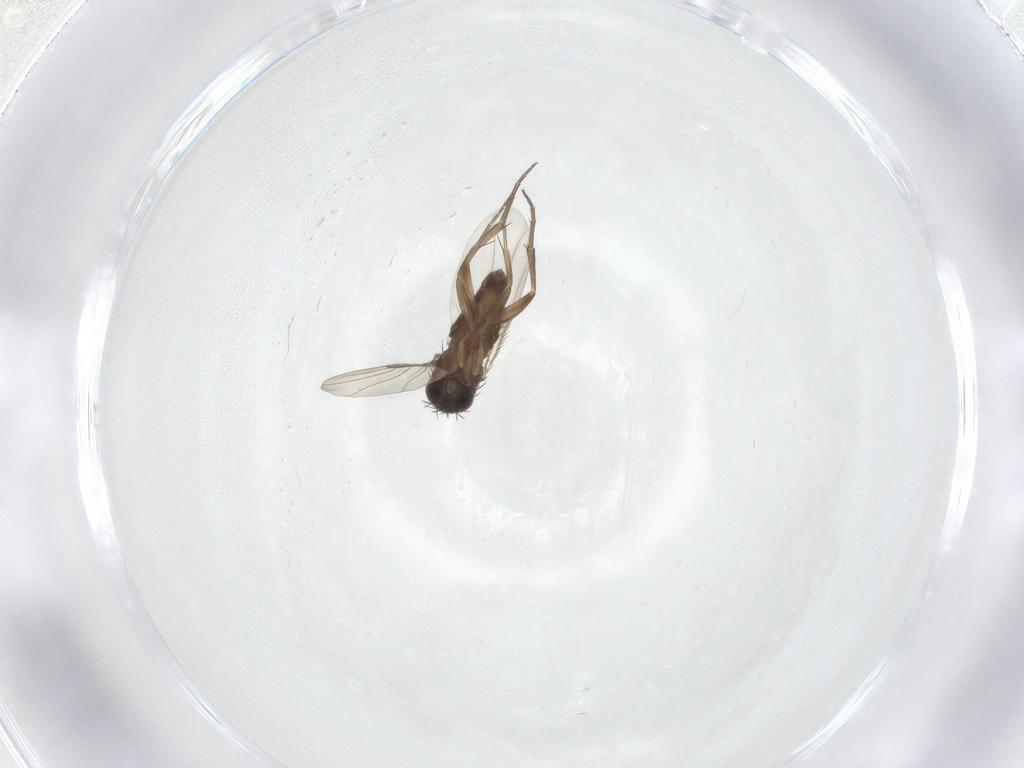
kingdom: Animalia
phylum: Arthropoda
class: Insecta
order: Diptera
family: Phoridae
